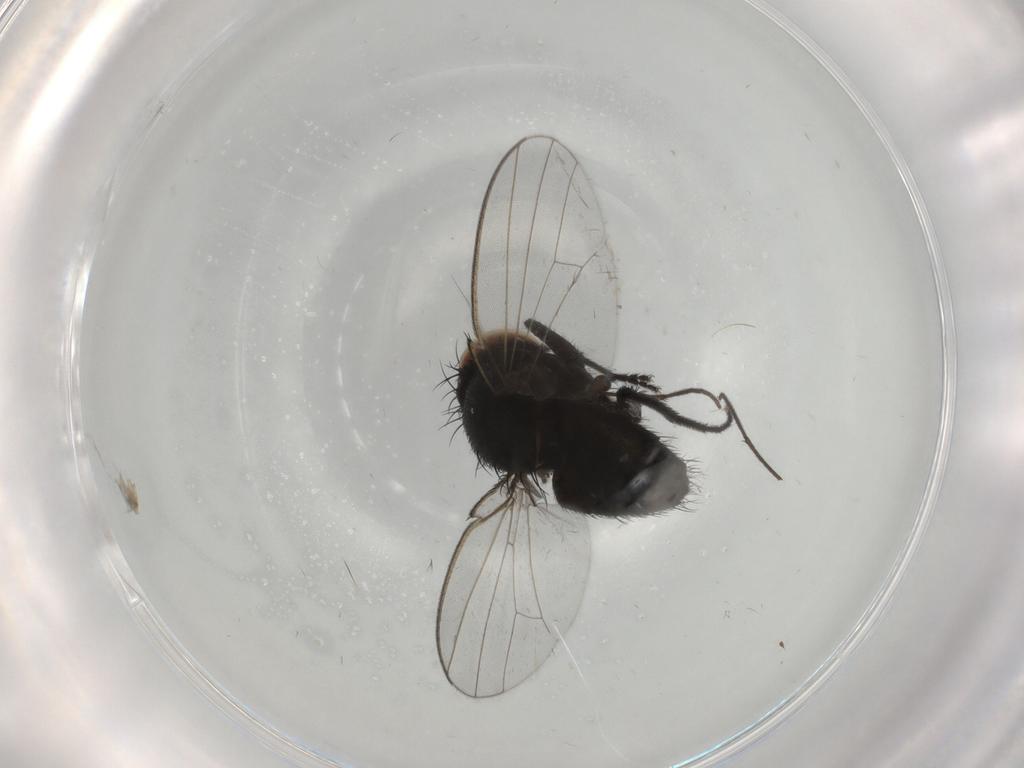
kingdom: Animalia
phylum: Arthropoda
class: Insecta
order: Diptera
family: Milichiidae
